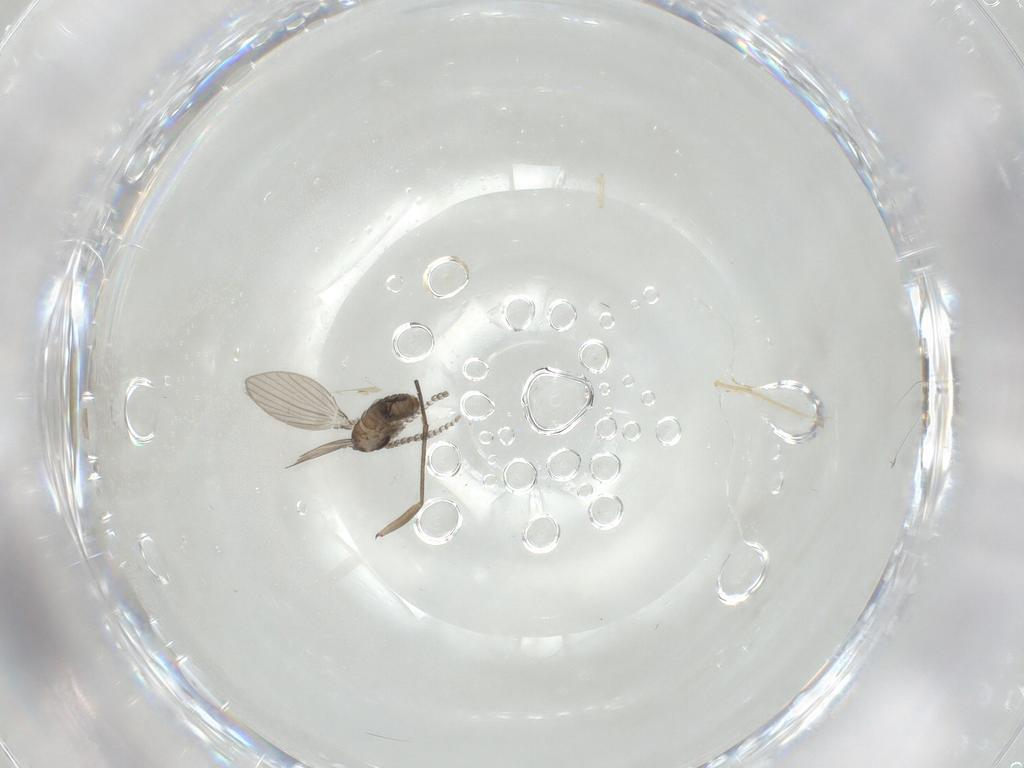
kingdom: Animalia
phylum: Arthropoda
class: Insecta
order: Diptera
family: Sciaridae
